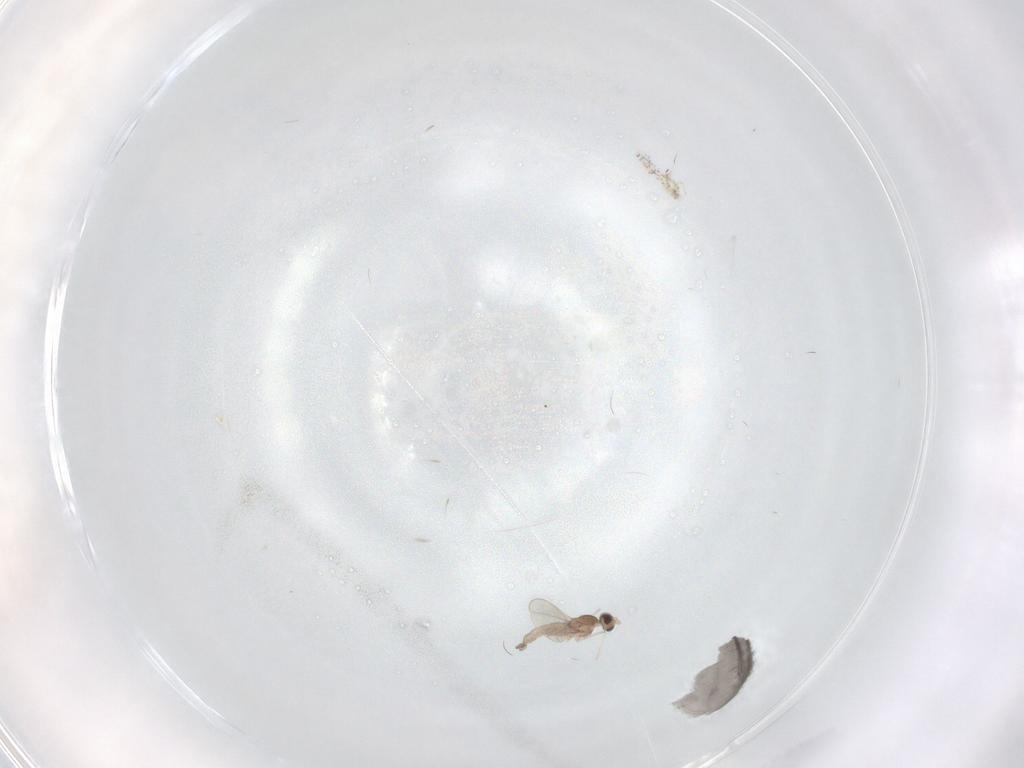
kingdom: Animalia
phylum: Arthropoda
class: Insecta
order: Diptera
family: Cecidomyiidae
